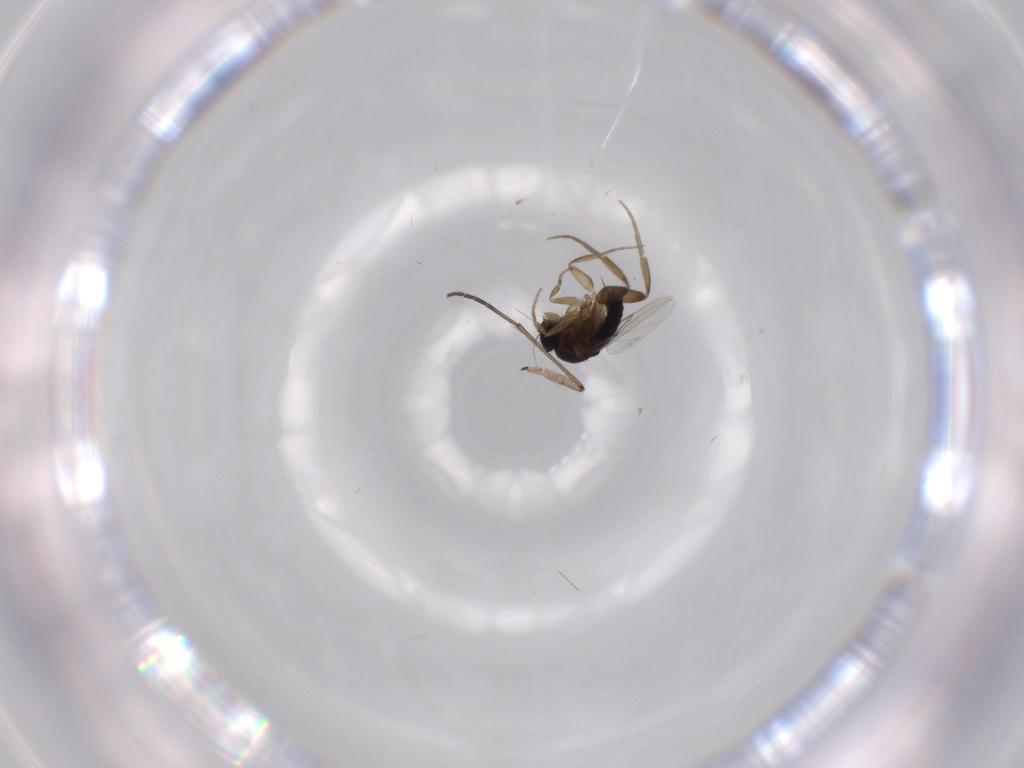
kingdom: Animalia
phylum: Arthropoda
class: Insecta
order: Diptera
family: Phoridae
